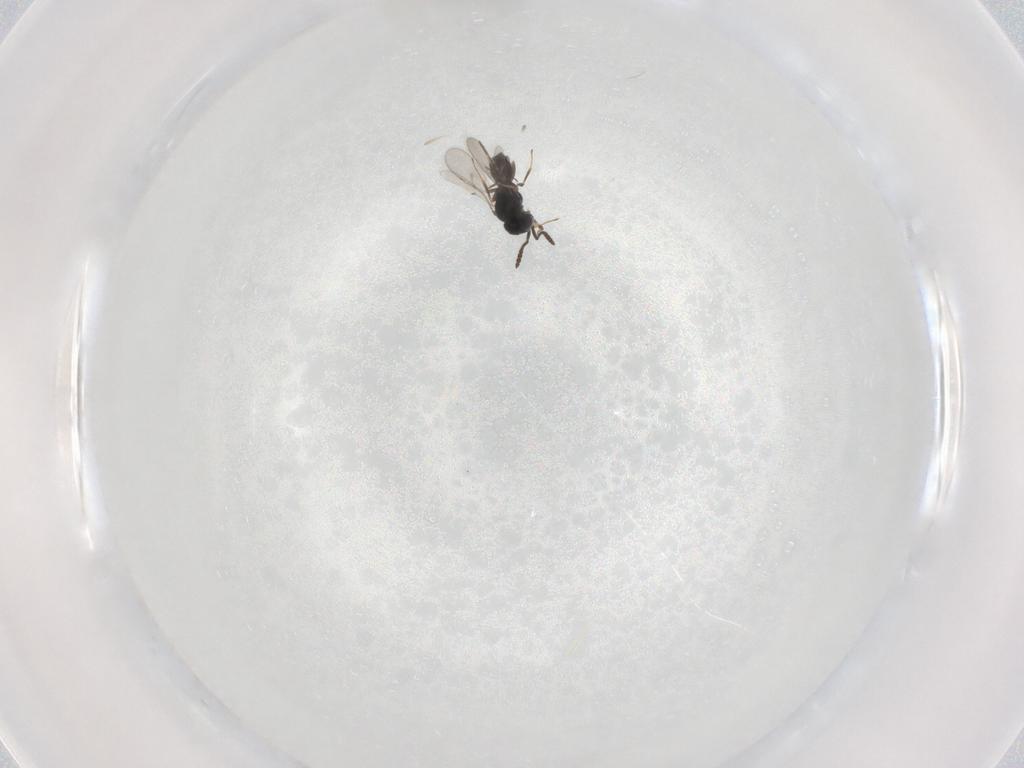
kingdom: Animalia
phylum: Arthropoda
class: Insecta
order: Hymenoptera
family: Scelionidae
